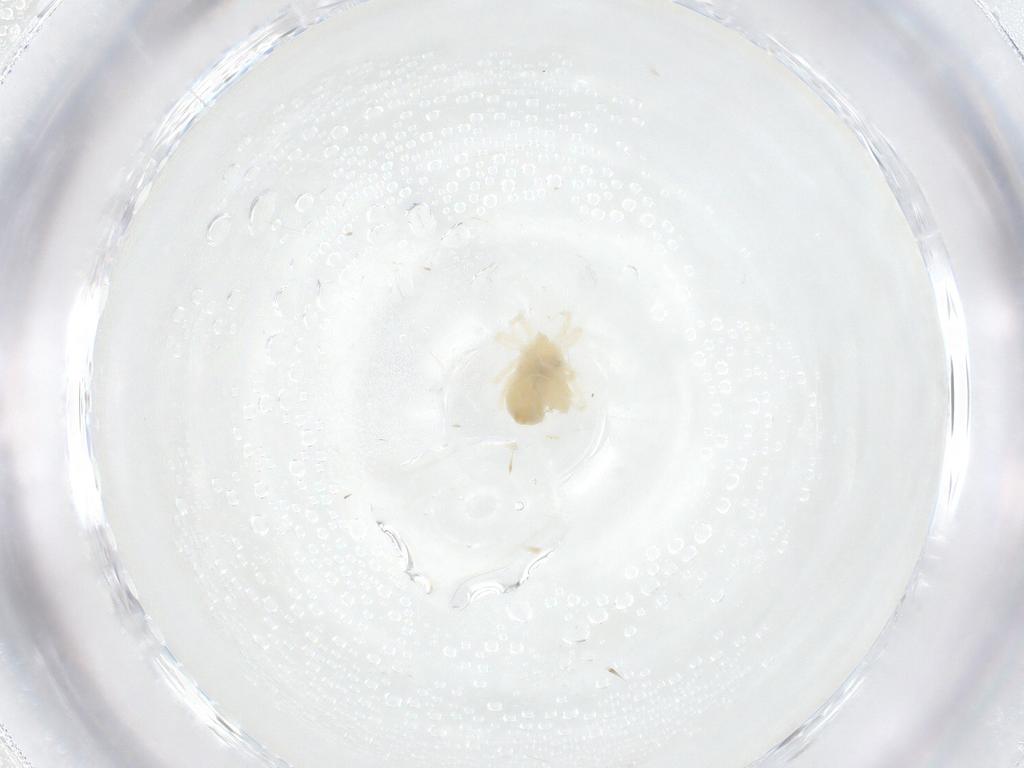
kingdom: Animalia
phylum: Arthropoda
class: Arachnida
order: Trombidiformes
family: Anystidae
